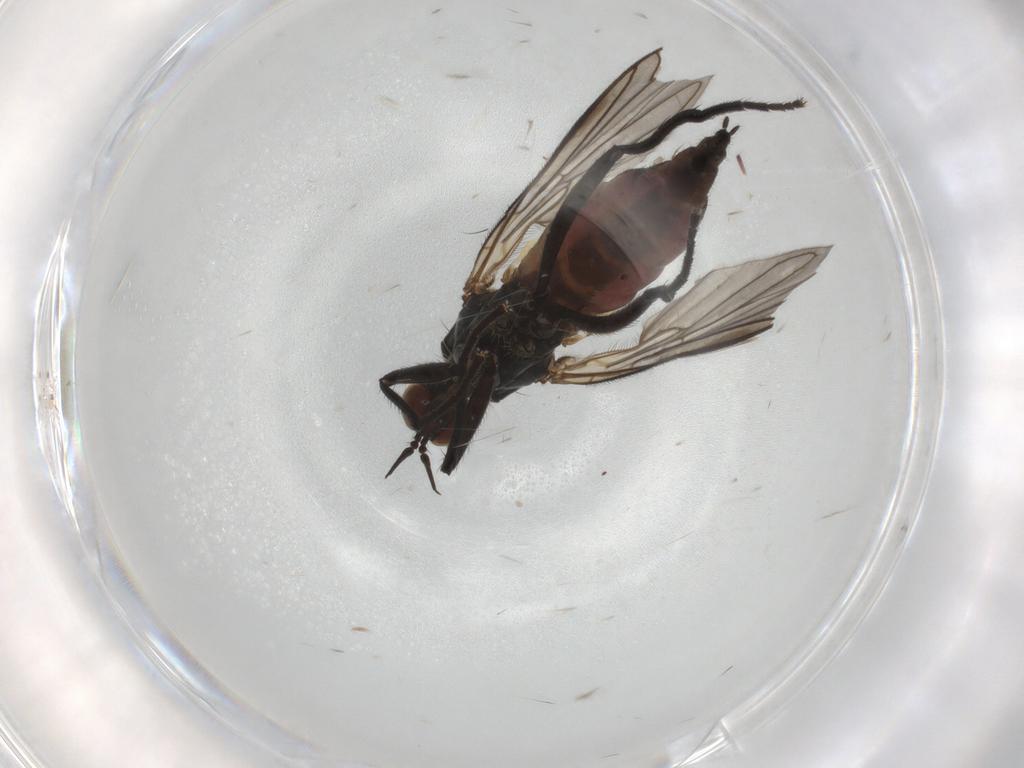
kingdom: Animalia
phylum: Arthropoda
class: Insecta
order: Diptera
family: Empididae
